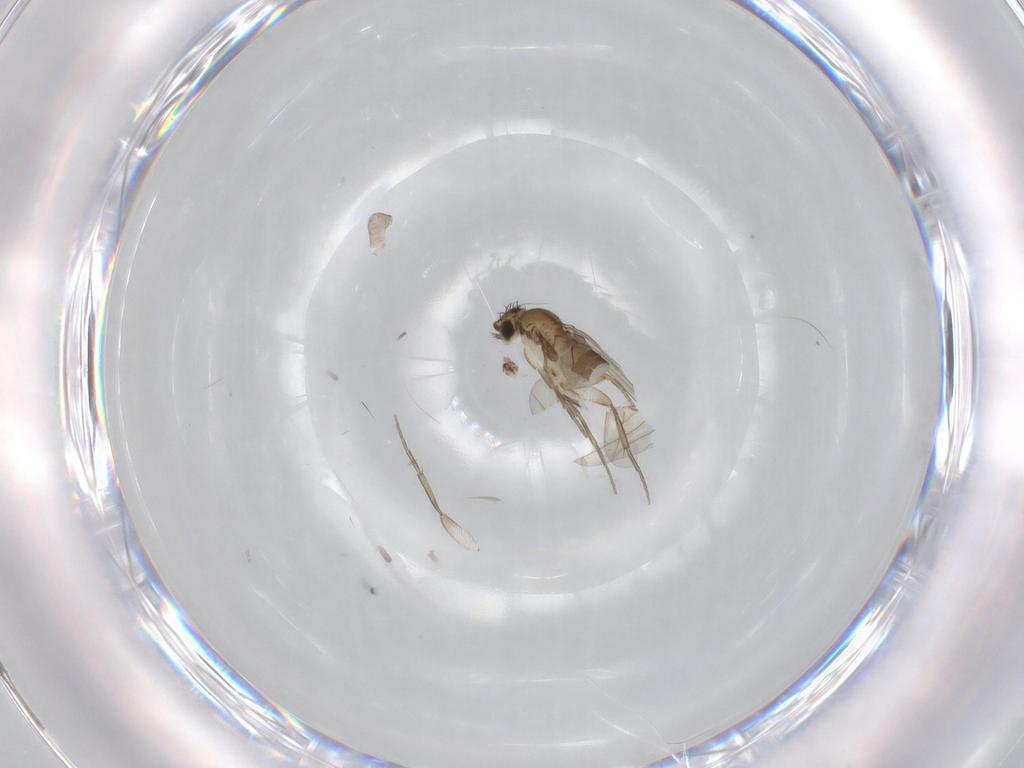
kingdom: Animalia
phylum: Arthropoda
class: Insecta
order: Diptera
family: Phoridae
